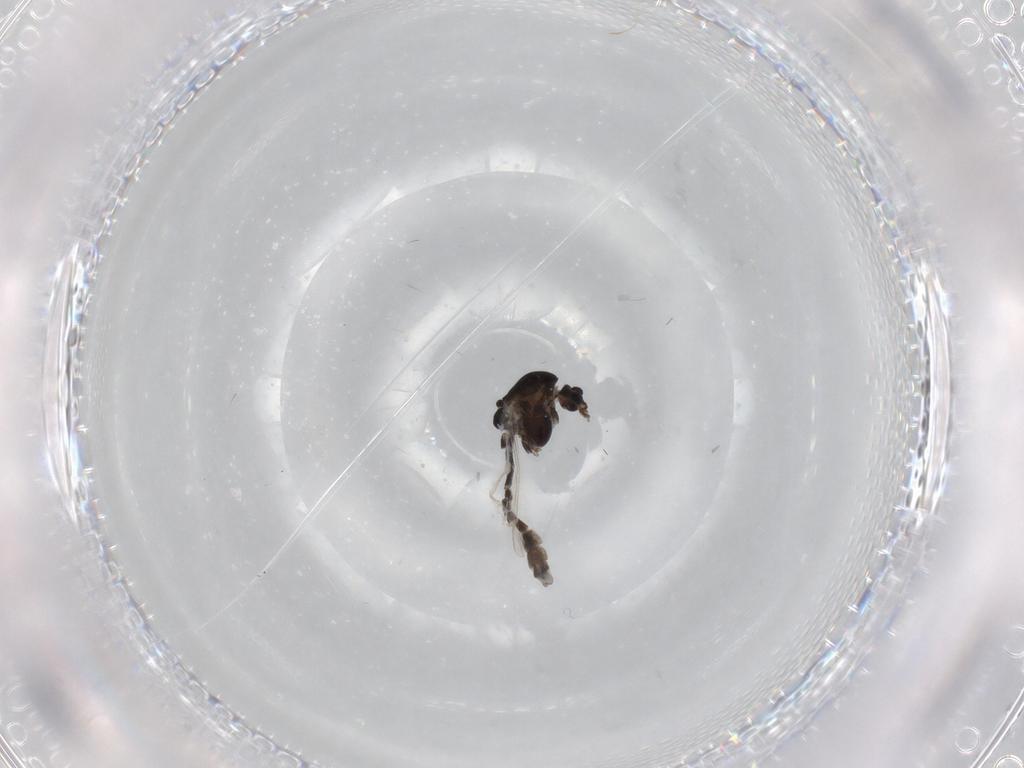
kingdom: Animalia
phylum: Arthropoda
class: Insecta
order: Diptera
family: Chironomidae
